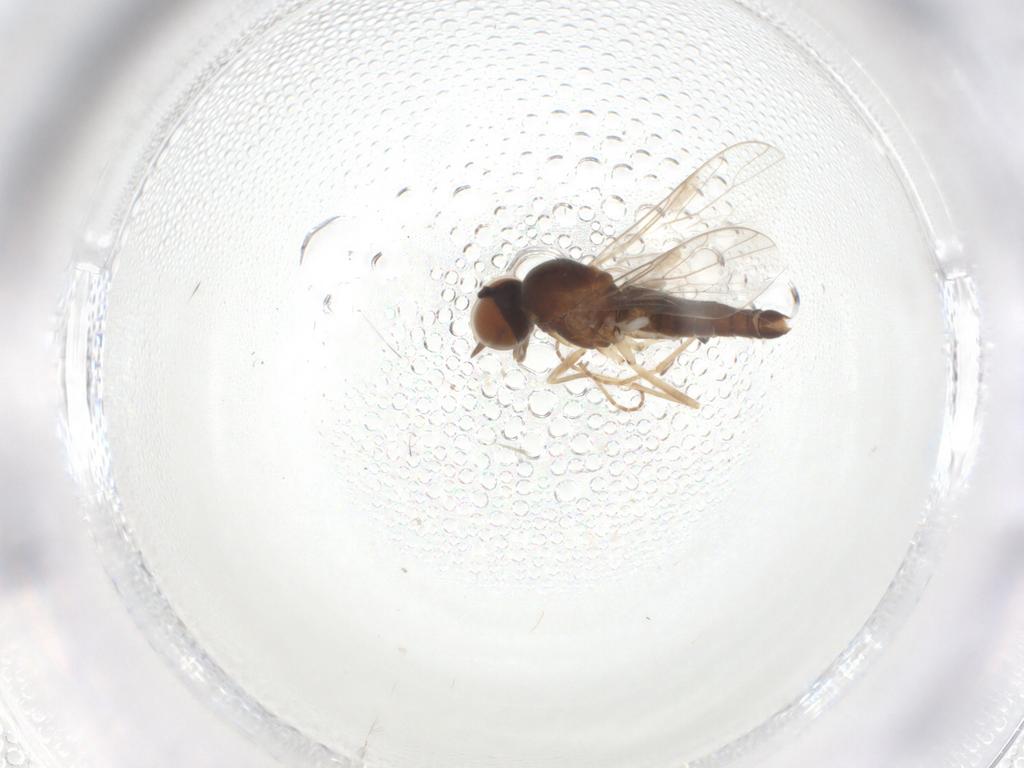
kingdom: Animalia
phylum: Arthropoda
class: Insecta
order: Diptera
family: Scenopinidae
